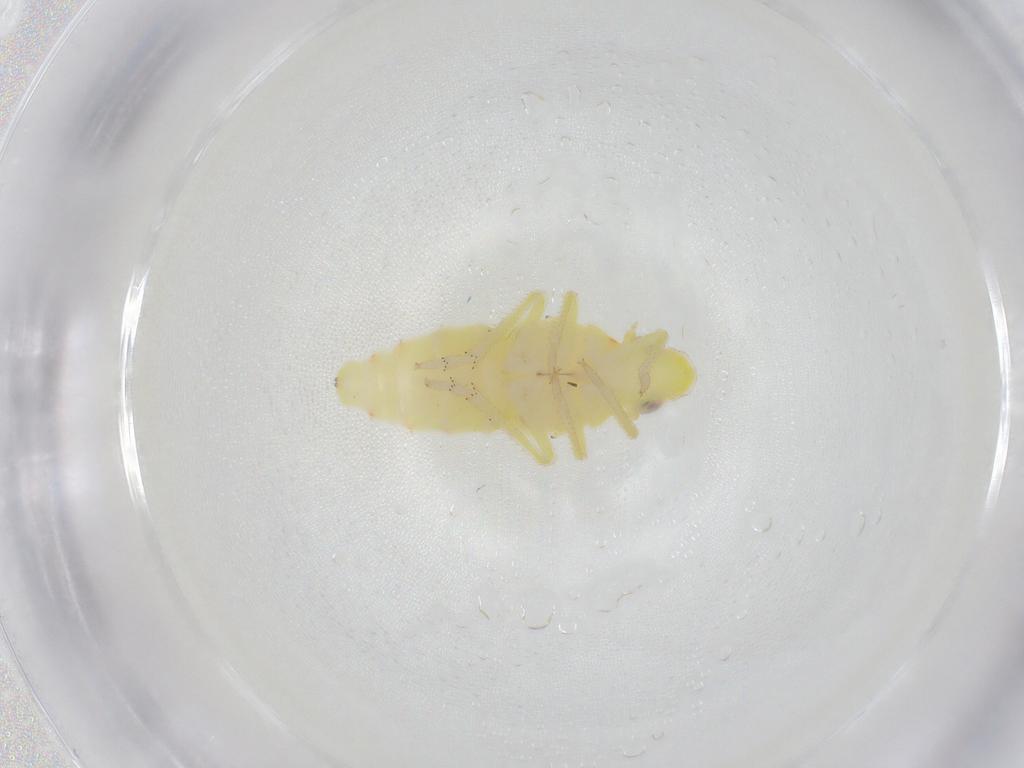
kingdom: Animalia
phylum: Arthropoda
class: Insecta
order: Hemiptera
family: Tropiduchidae
